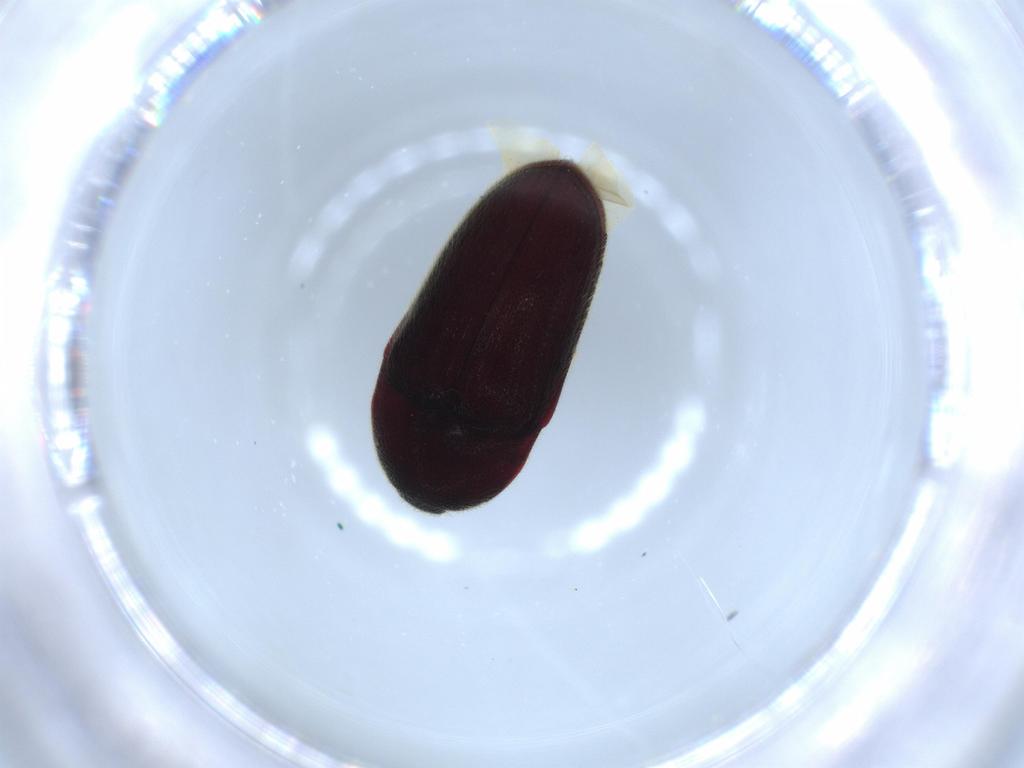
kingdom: Animalia
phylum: Arthropoda
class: Insecta
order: Coleoptera
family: Throscidae
